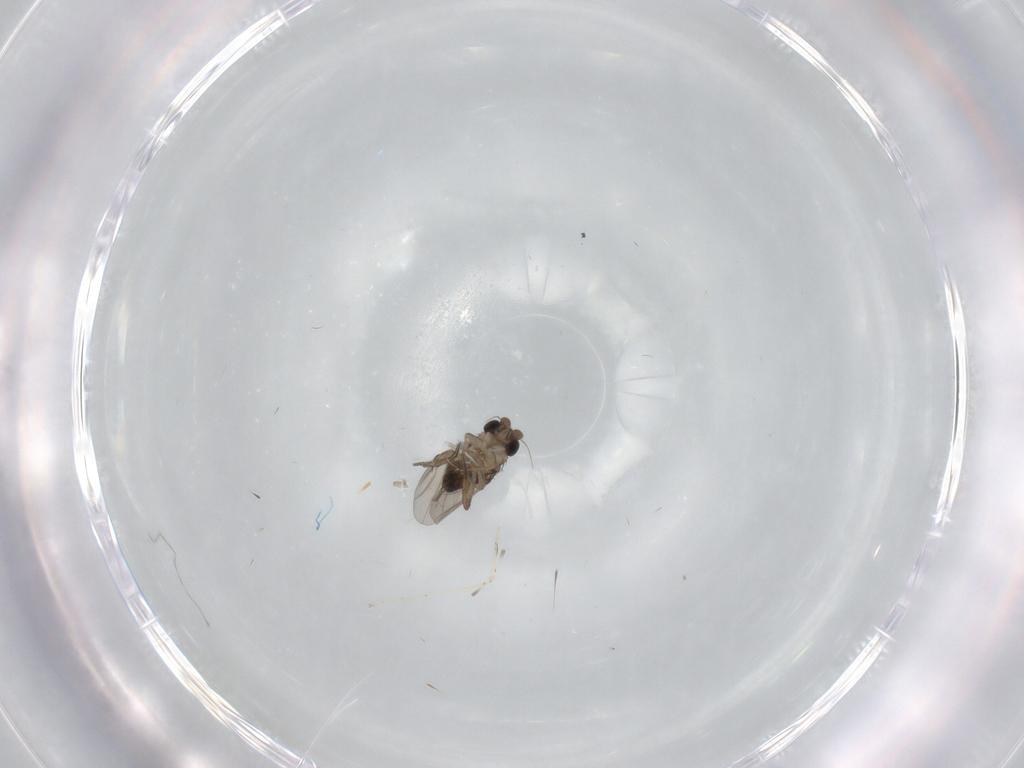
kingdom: Animalia
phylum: Arthropoda
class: Insecta
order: Diptera
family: Phoridae
